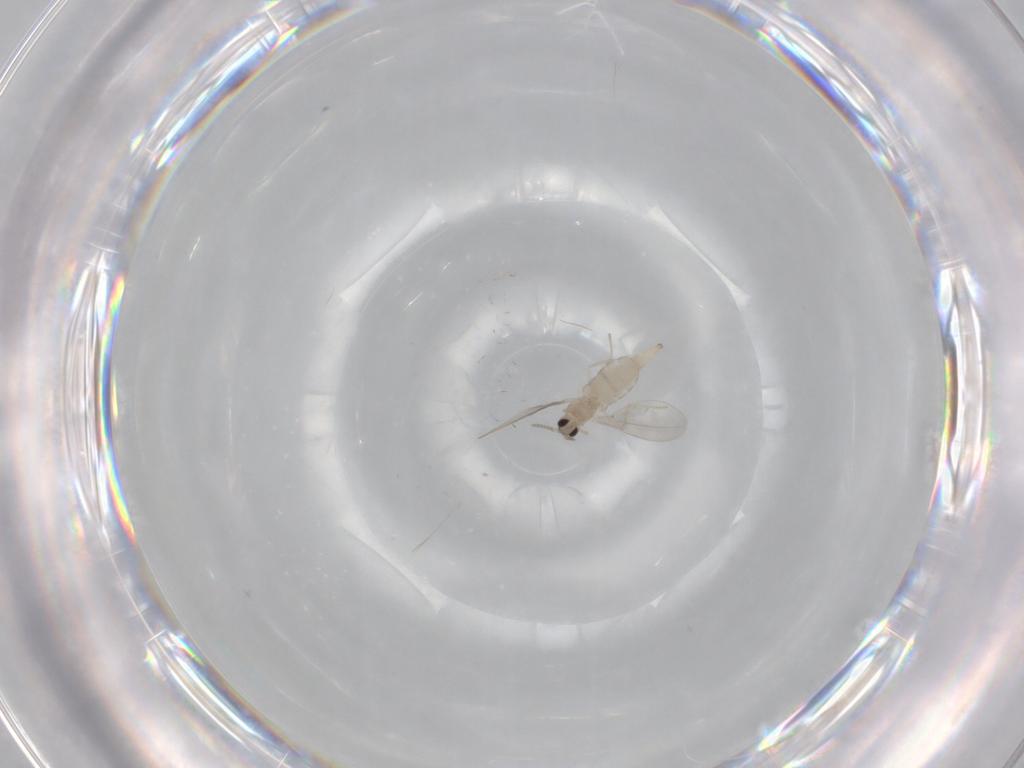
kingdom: Animalia
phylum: Arthropoda
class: Insecta
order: Diptera
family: Cecidomyiidae
